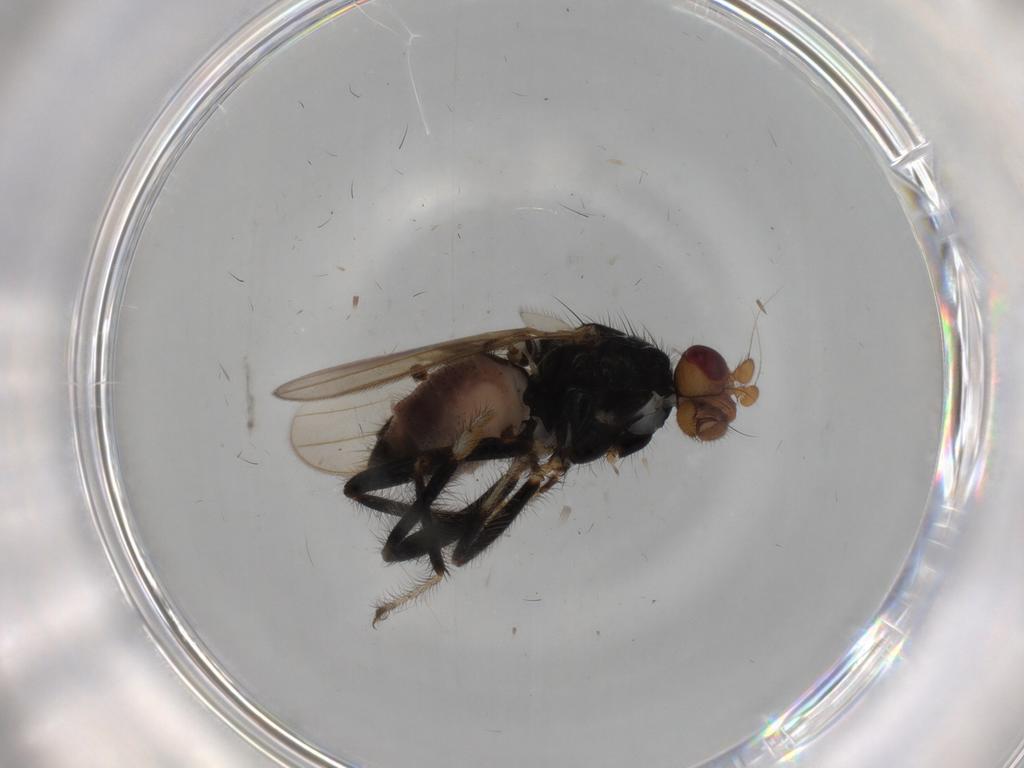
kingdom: Animalia
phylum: Arthropoda
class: Insecta
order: Diptera
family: Sphaeroceridae
